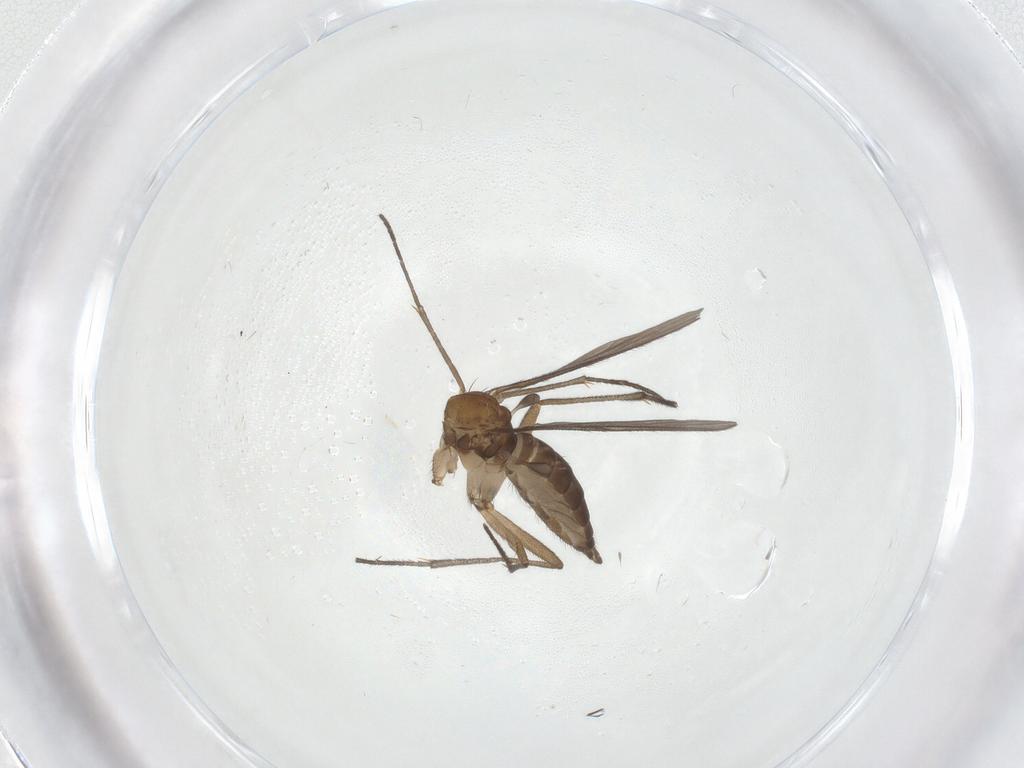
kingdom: Animalia
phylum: Arthropoda
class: Insecta
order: Diptera
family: Sciaridae
